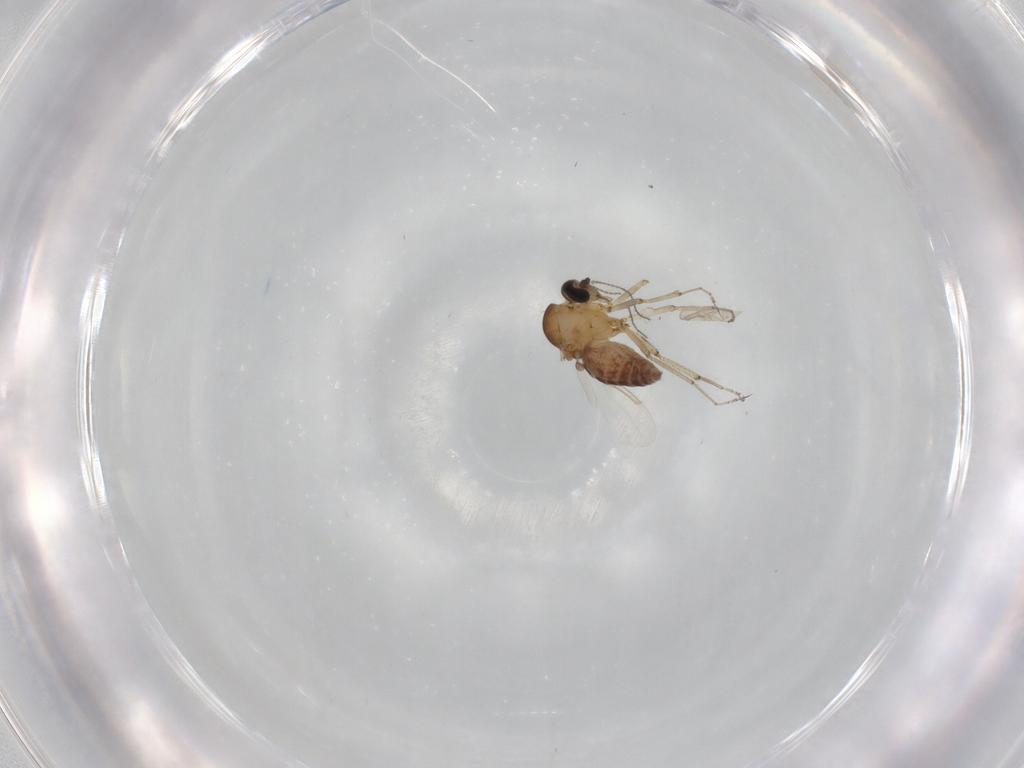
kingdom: Animalia
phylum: Arthropoda
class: Insecta
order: Diptera
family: Ceratopogonidae
